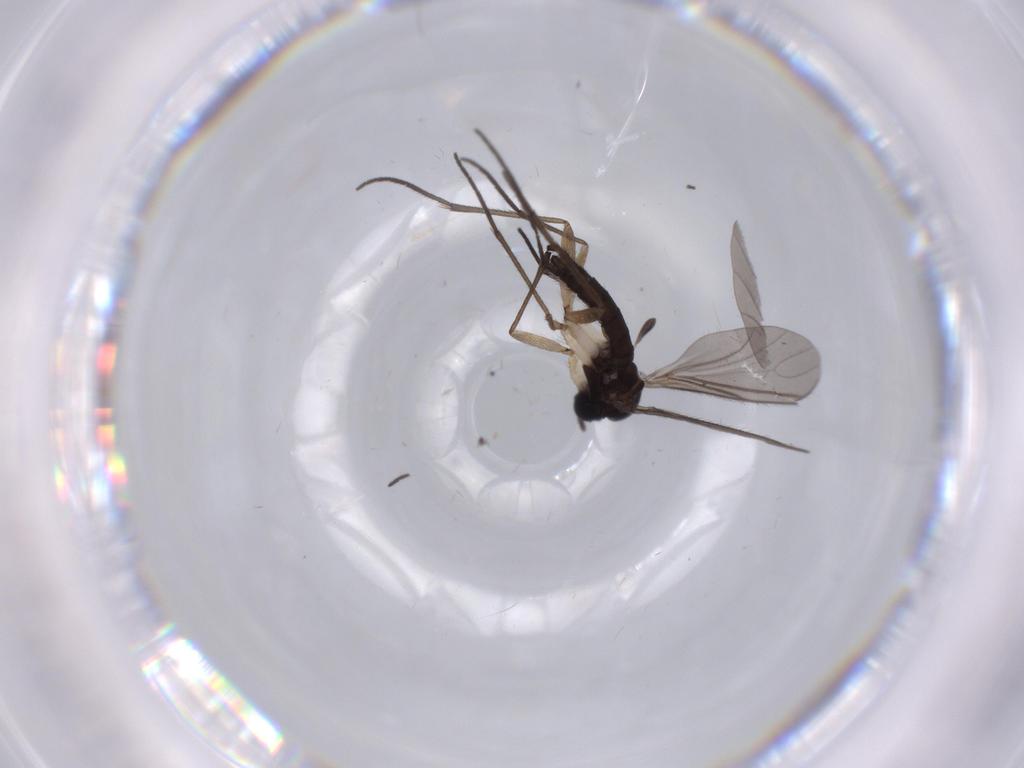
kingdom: Animalia
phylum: Arthropoda
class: Insecta
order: Diptera
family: Sciaridae
